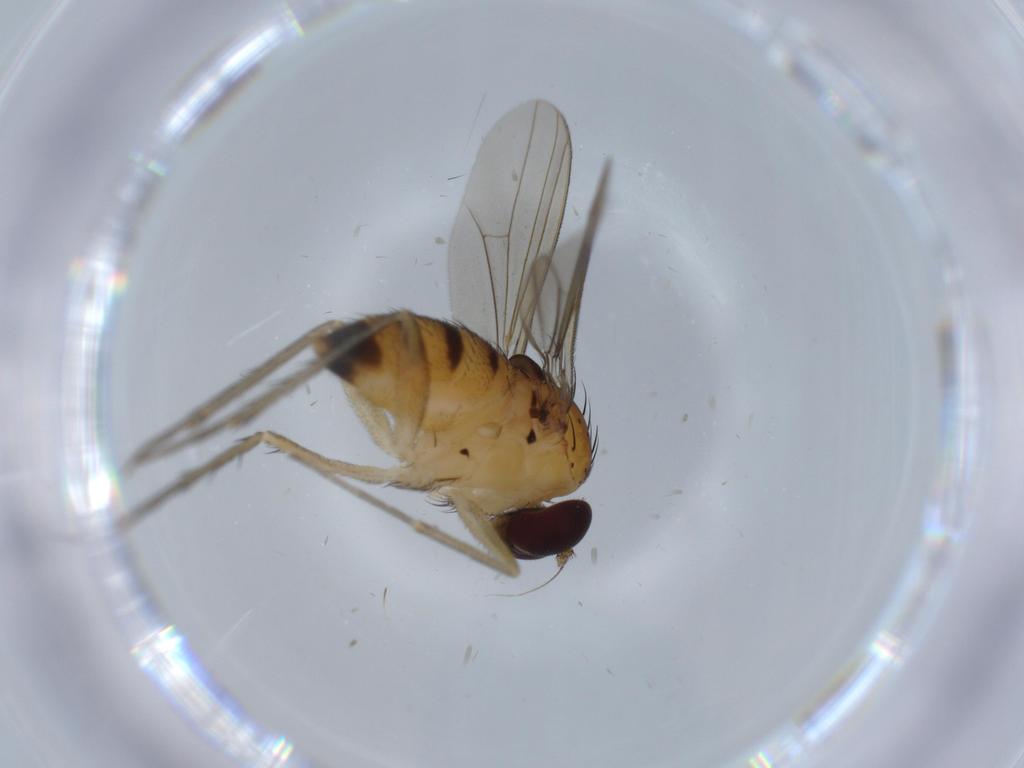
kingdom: Animalia
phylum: Arthropoda
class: Insecta
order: Diptera
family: Dolichopodidae
